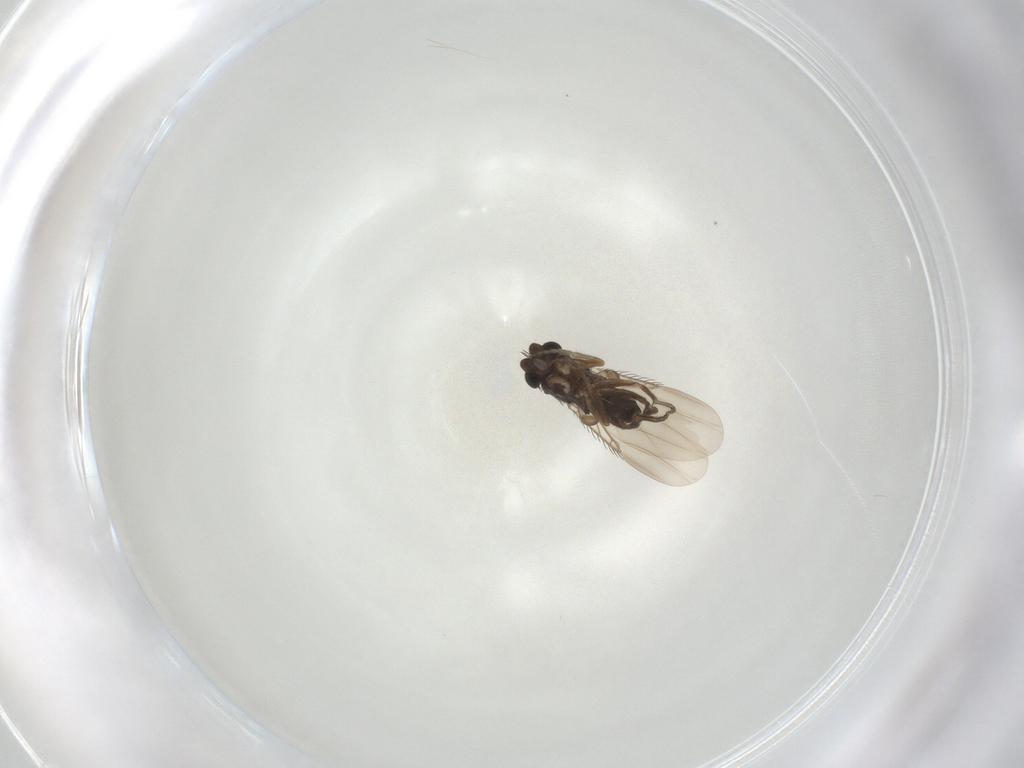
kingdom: Animalia
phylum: Arthropoda
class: Insecta
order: Diptera
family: Phoridae
